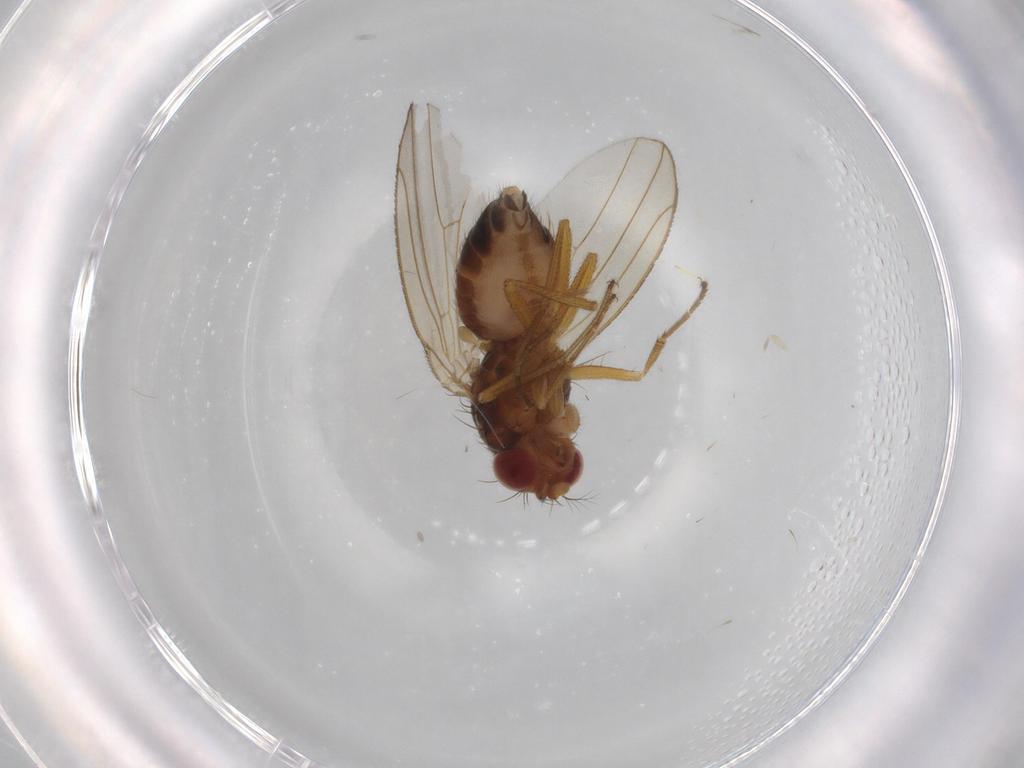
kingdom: Animalia
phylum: Arthropoda
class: Insecta
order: Diptera
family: Drosophilidae
